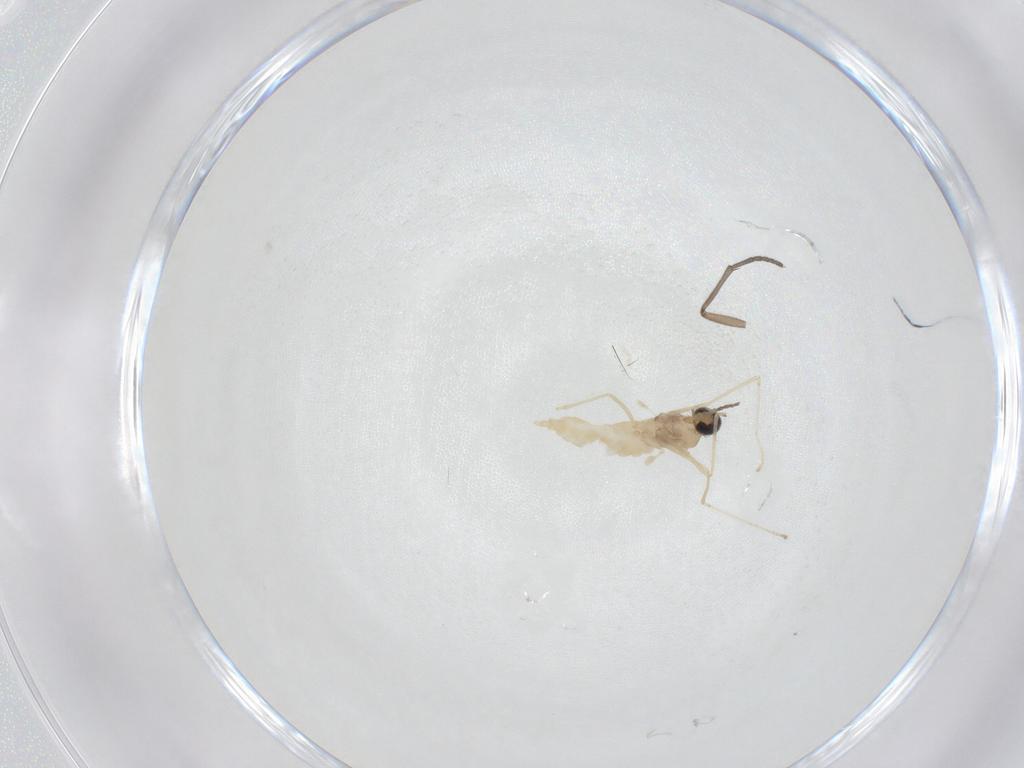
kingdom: Animalia
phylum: Arthropoda
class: Insecta
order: Diptera
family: Cecidomyiidae
